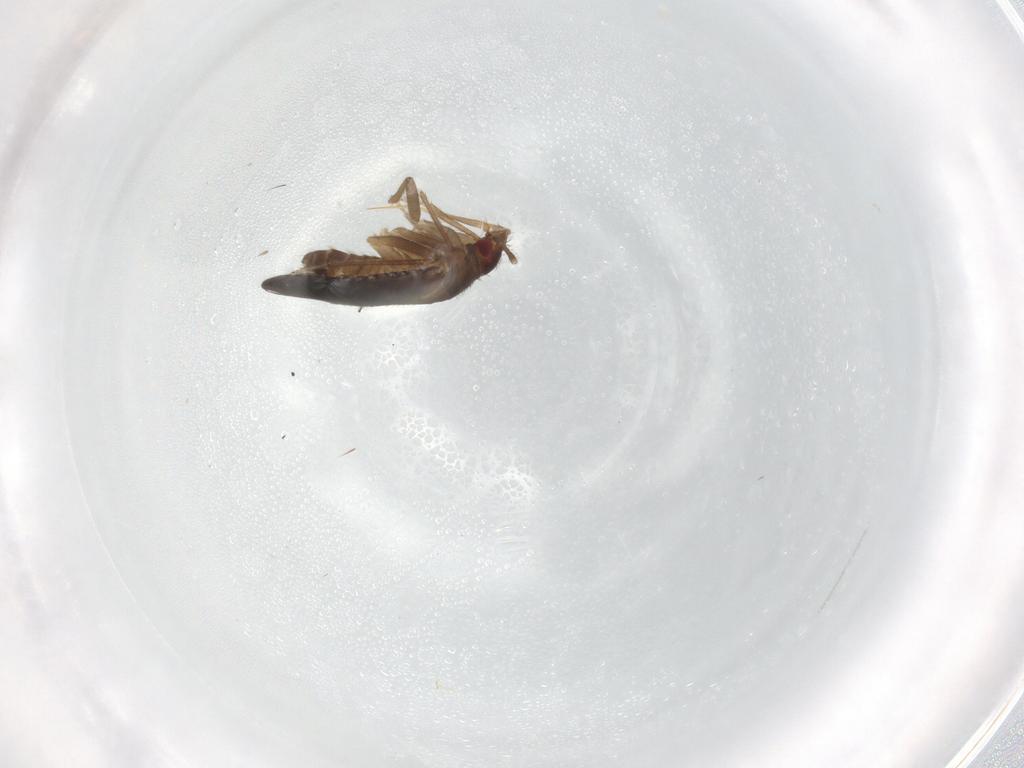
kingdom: Animalia
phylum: Arthropoda
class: Insecta
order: Hemiptera
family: Ceratocombidae
